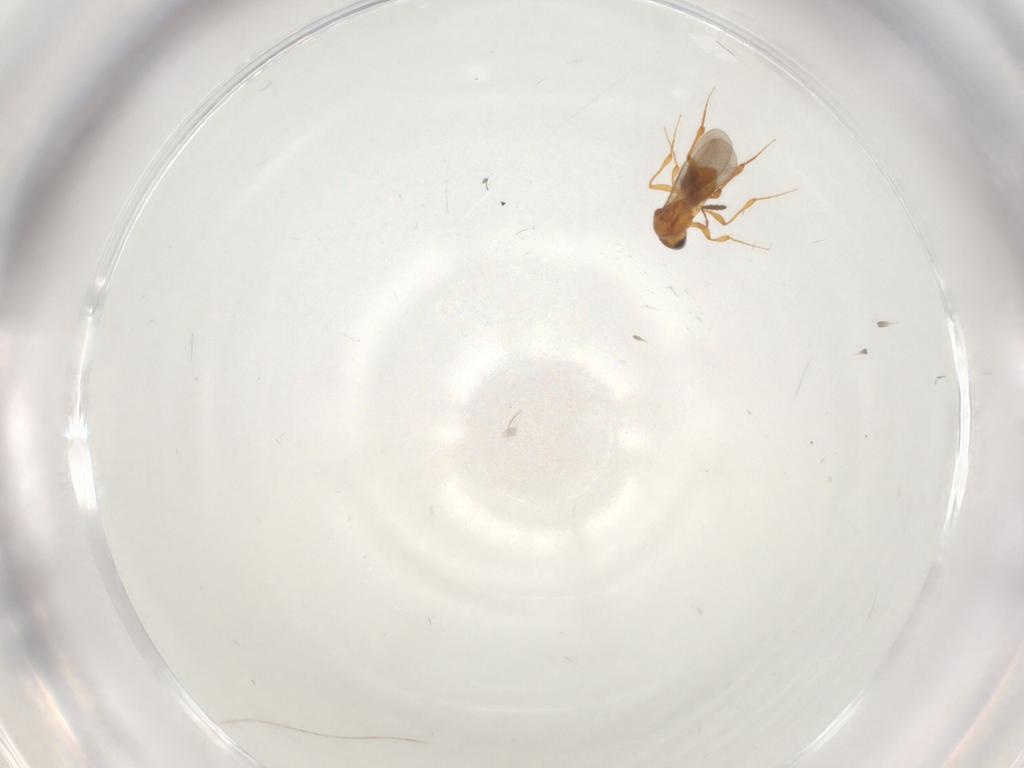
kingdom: Animalia
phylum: Arthropoda
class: Insecta
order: Hymenoptera
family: Platygastridae
